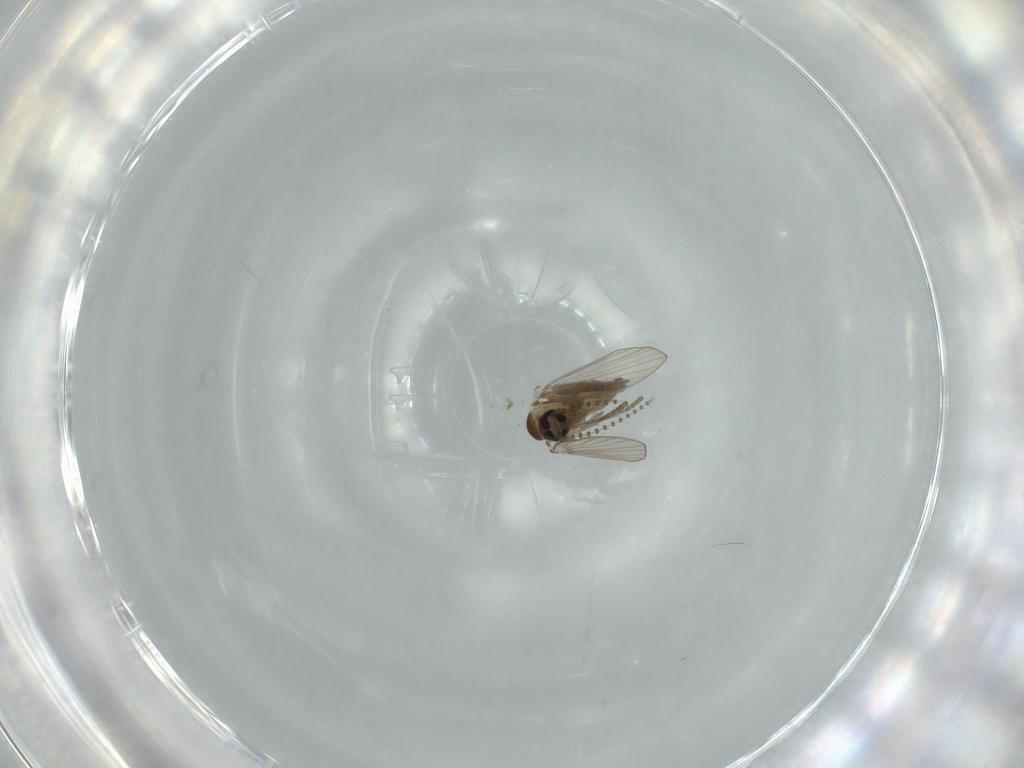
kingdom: Animalia
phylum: Arthropoda
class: Insecta
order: Diptera
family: Psychodidae
